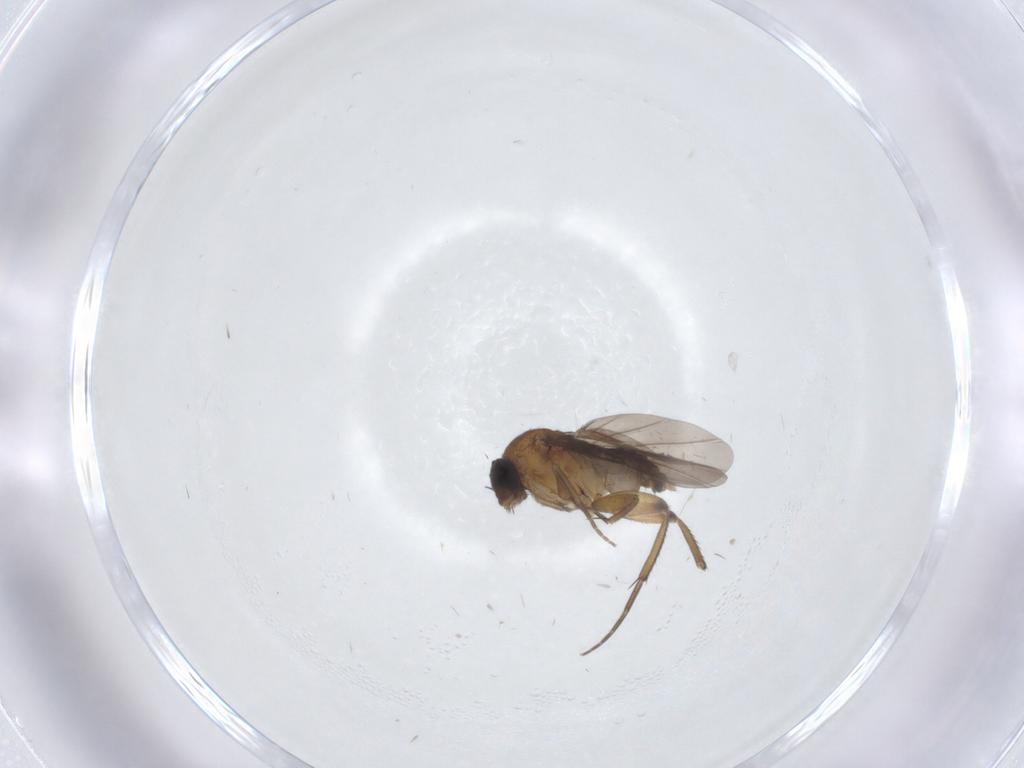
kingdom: Animalia
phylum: Arthropoda
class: Insecta
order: Diptera
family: Phoridae
